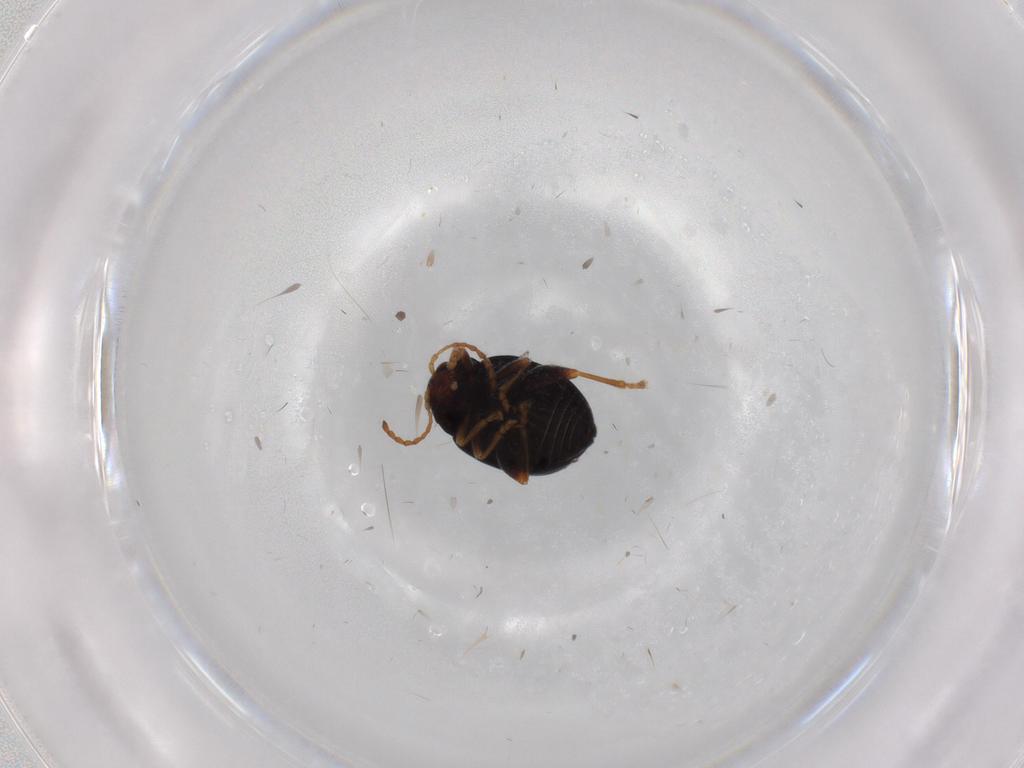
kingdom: Animalia
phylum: Arthropoda
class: Insecta
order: Coleoptera
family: Chrysomelidae
